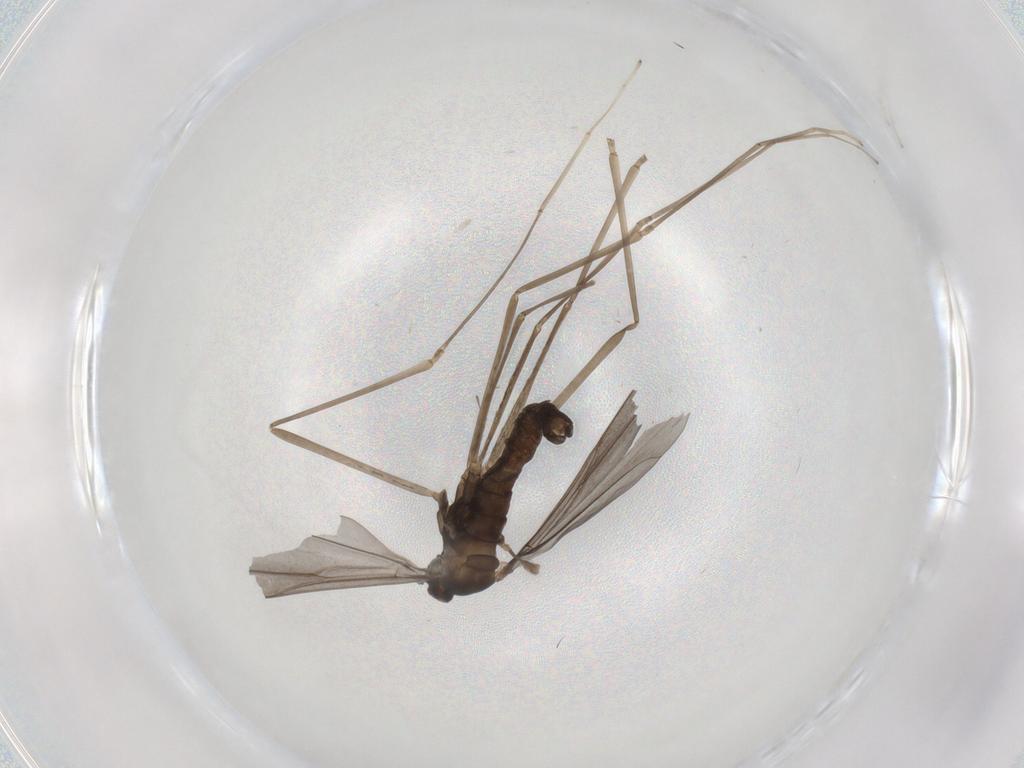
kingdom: Animalia
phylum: Arthropoda
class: Insecta
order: Diptera
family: Cecidomyiidae
